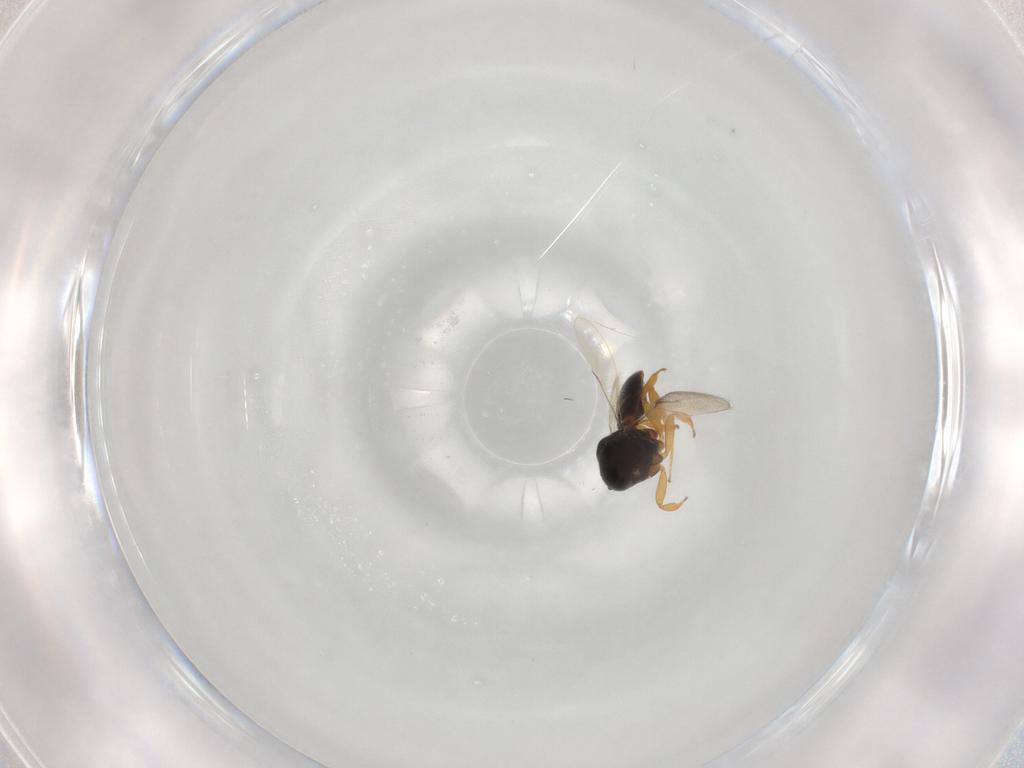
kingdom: Animalia
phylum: Arthropoda
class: Insecta
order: Hymenoptera
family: Scelionidae
